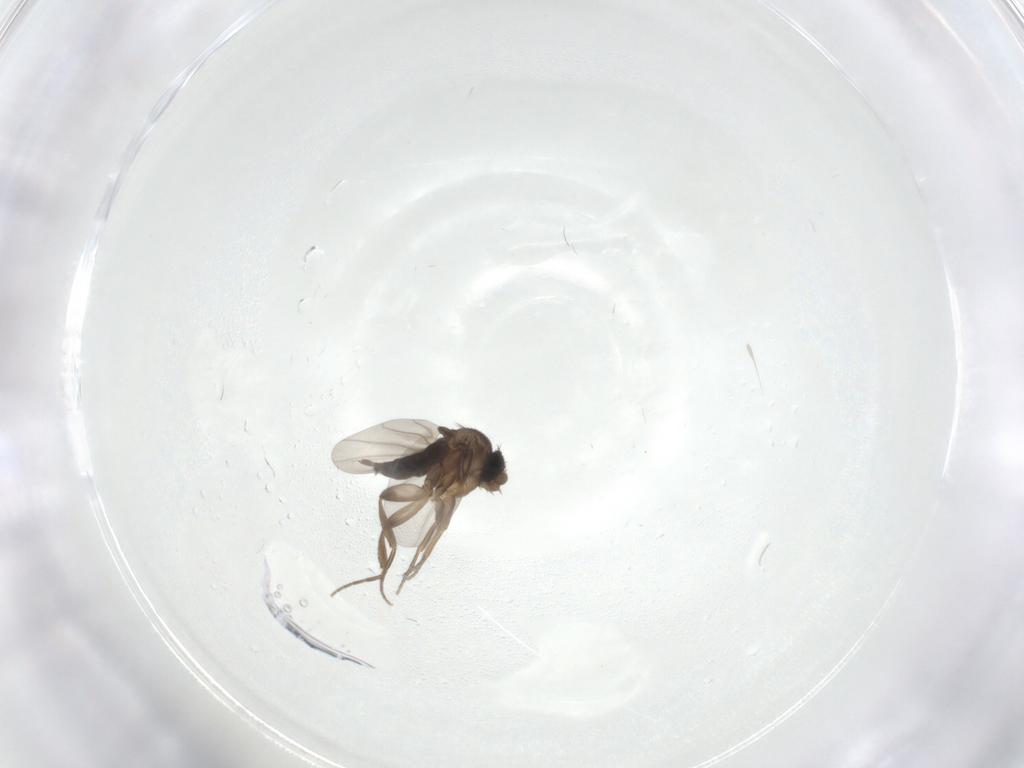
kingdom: Animalia
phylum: Arthropoda
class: Insecta
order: Diptera
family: Phoridae
